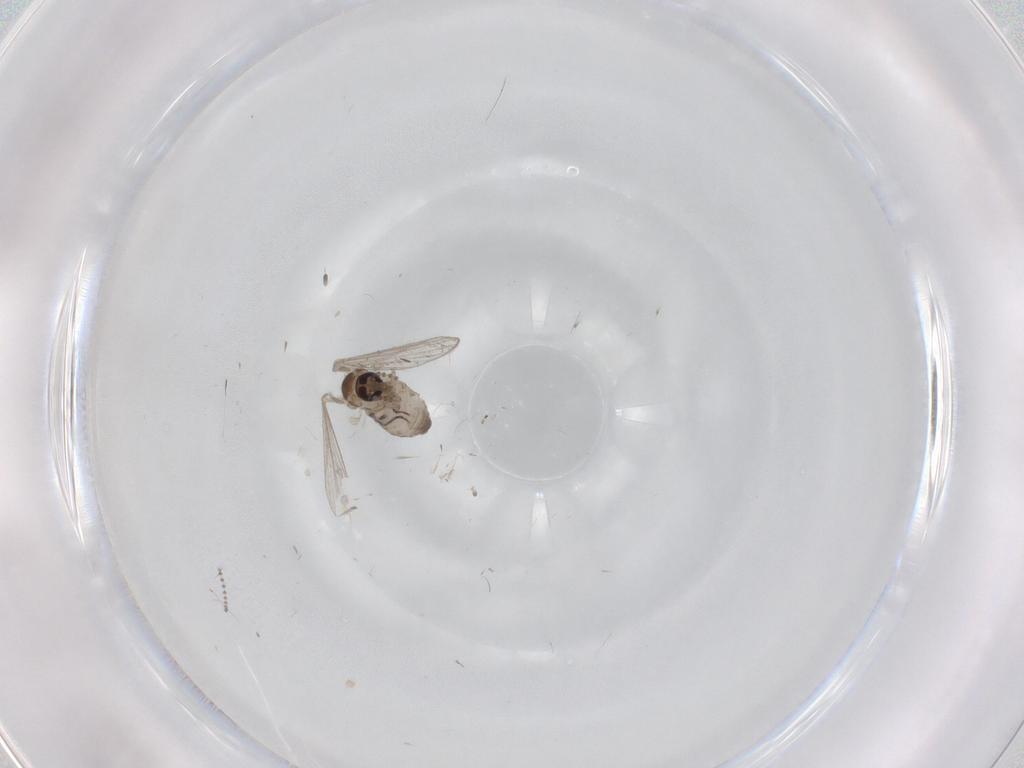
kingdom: Animalia
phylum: Arthropoda
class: Insecta
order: Diptera
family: Psychodidae
